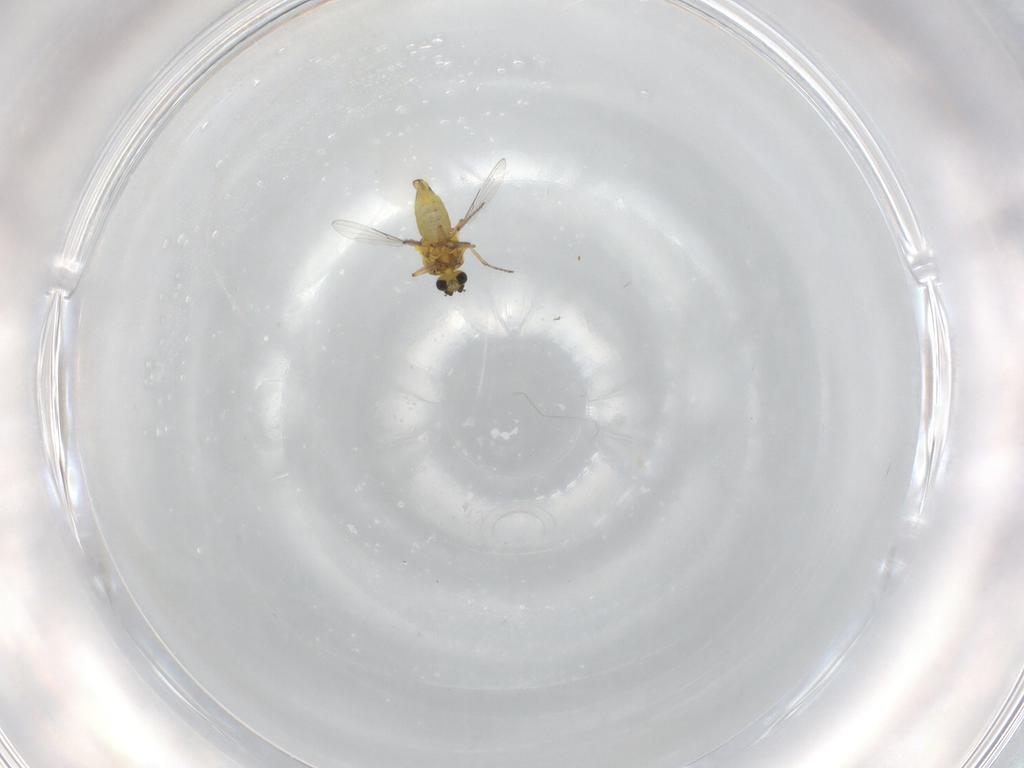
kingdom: Animalia
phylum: Arthropoda
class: Insecta
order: Diptera
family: Ceratopogonidae
